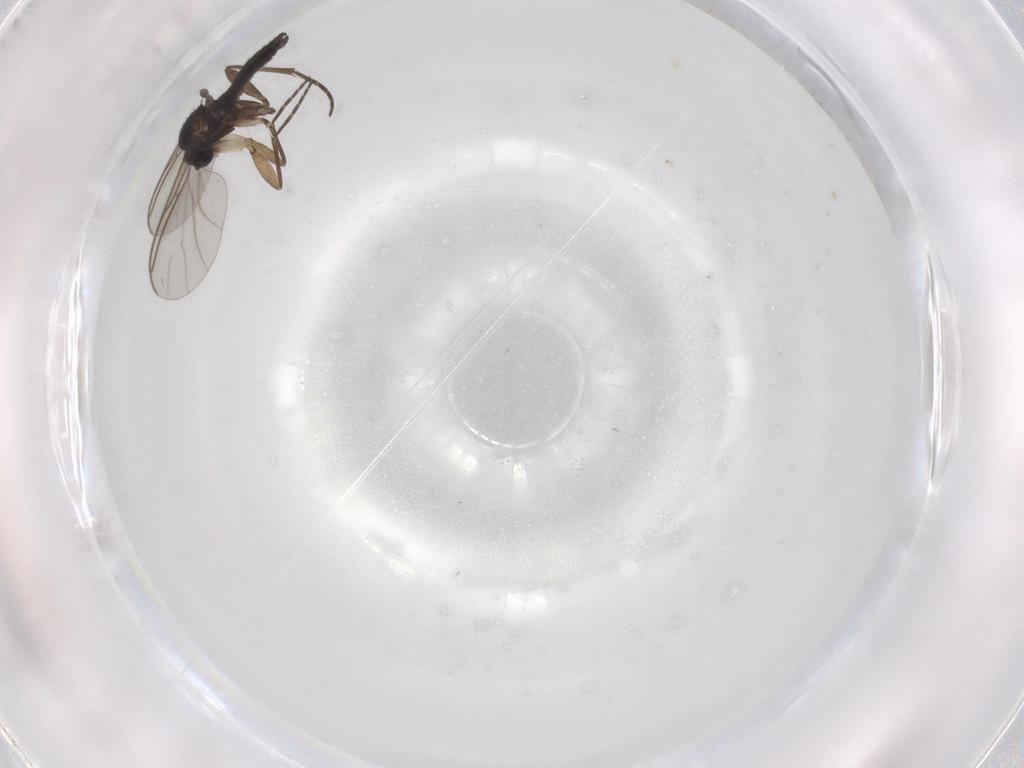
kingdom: Animalia
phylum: Arthropoda
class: Insecta
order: Diptera
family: Sciaridae
